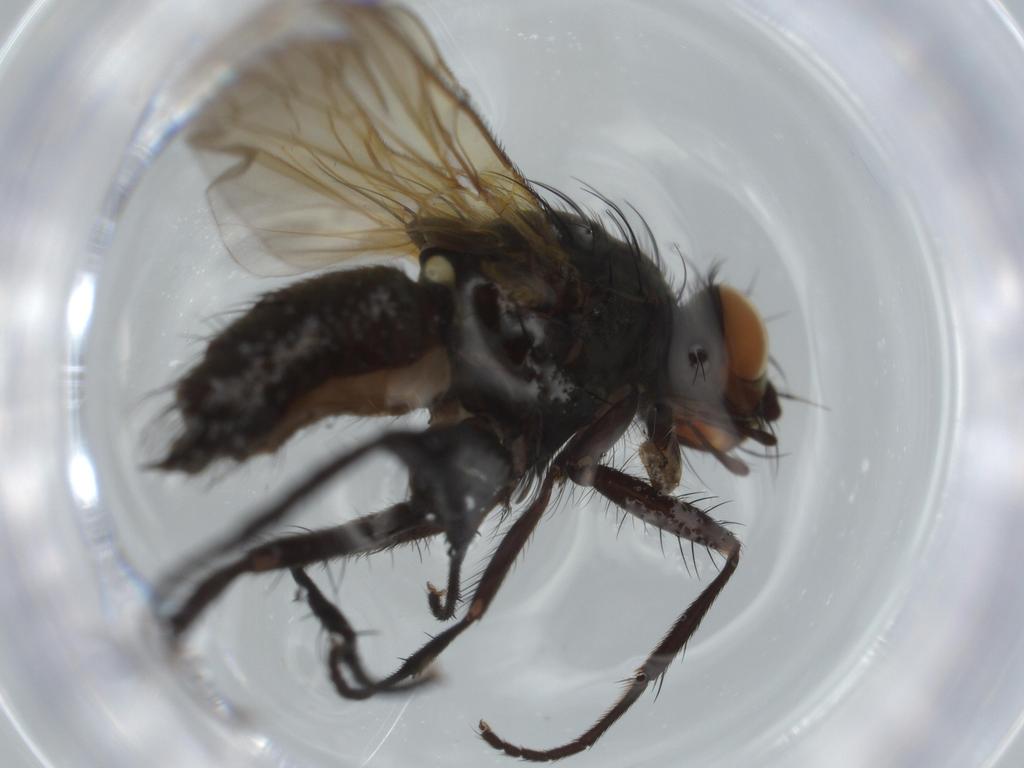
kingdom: Animalia
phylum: Arthropoda
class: Insecta
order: Diptera
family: Anthomyiidae
